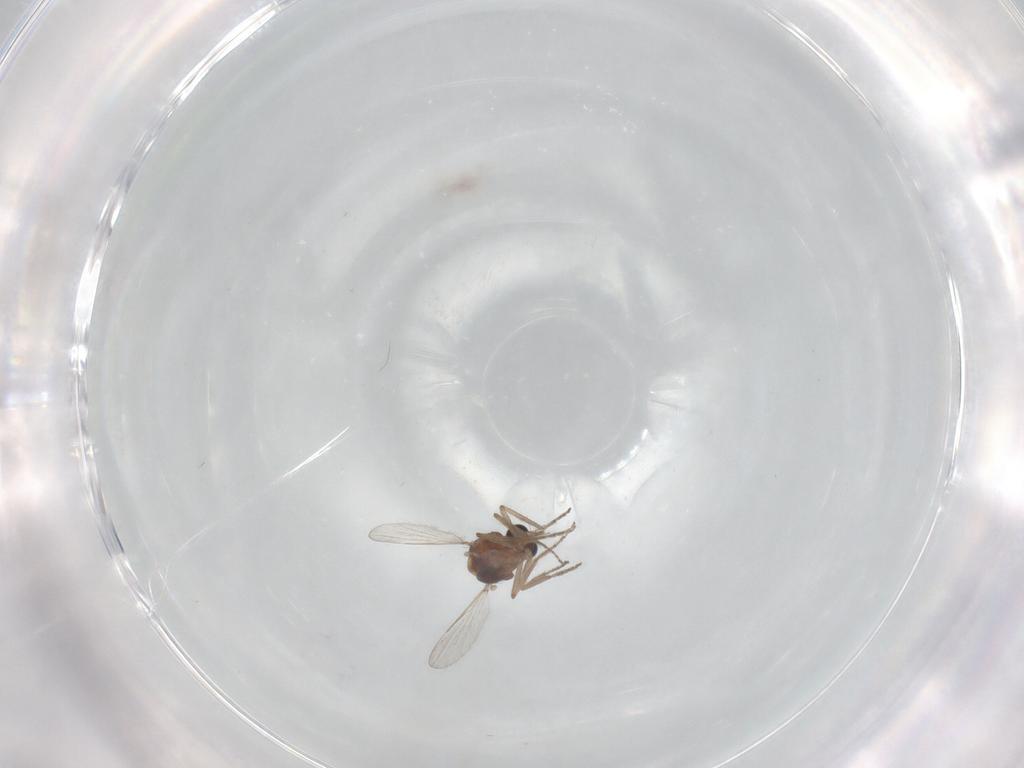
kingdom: Animalia
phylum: Arthropoda
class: Insecta
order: Diptera
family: Ceratopogonidae
